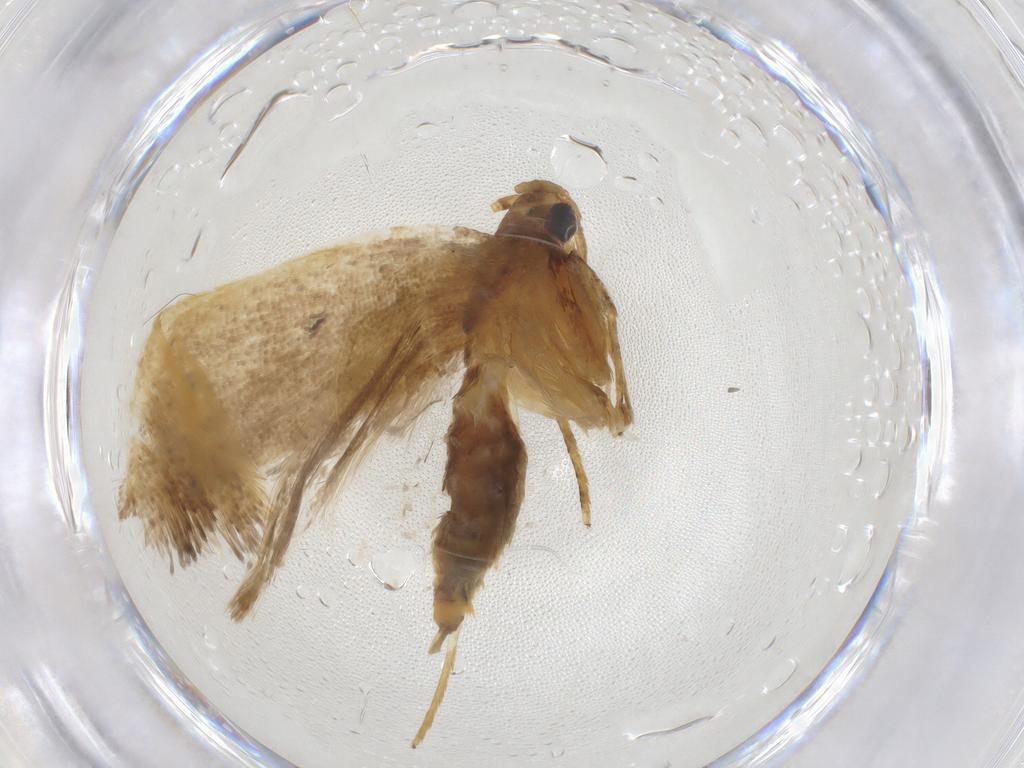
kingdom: Animalia
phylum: Arthropoda
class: Insecta
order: Lepidoptera
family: Lecithoceridae
